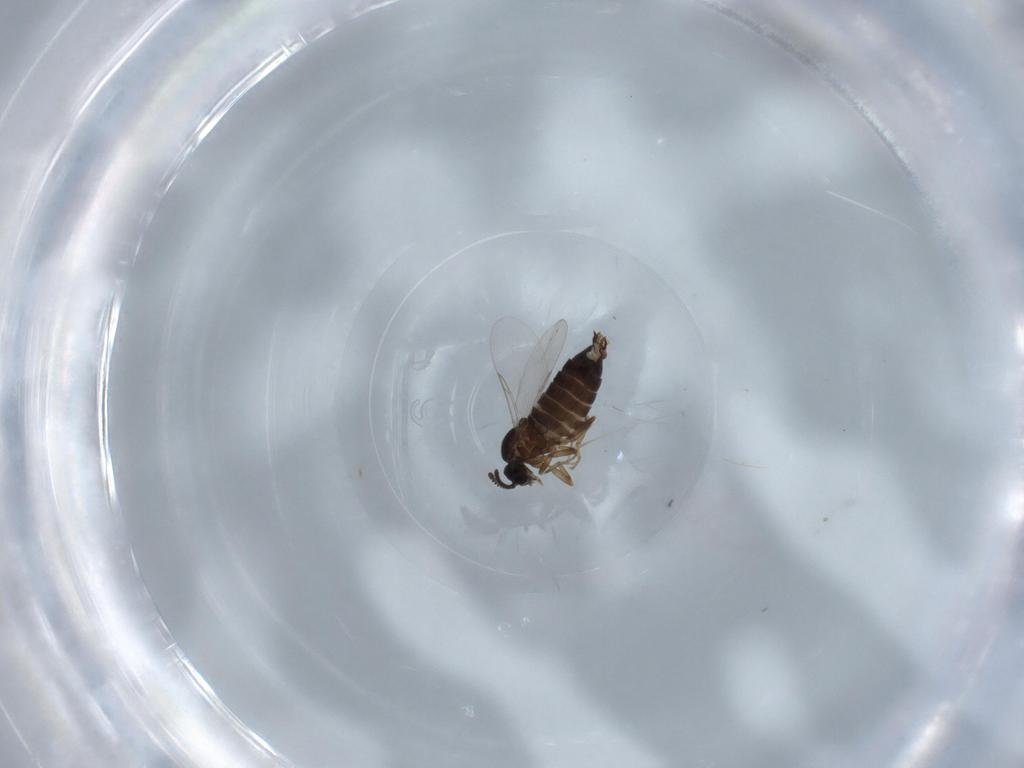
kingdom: Animalia
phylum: Arthropoda
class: Insecta
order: Diptera
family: Scatopsidae
